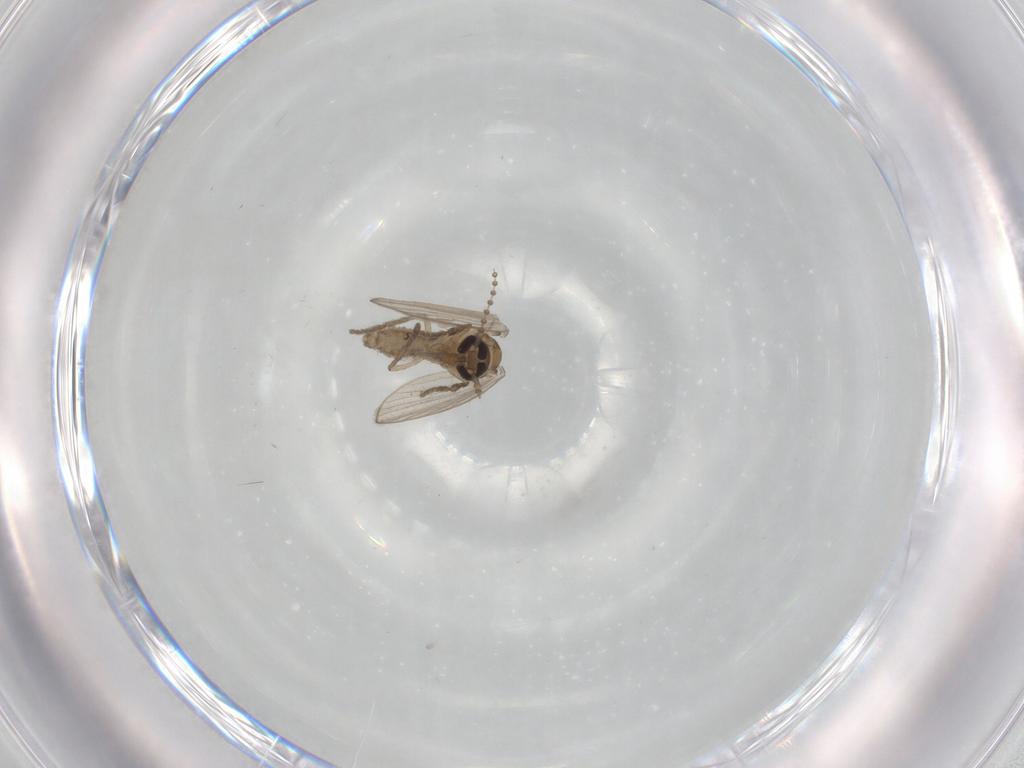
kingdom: Animalia
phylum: Arthropoda
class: Insecta
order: Diptera
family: Psychodidae
